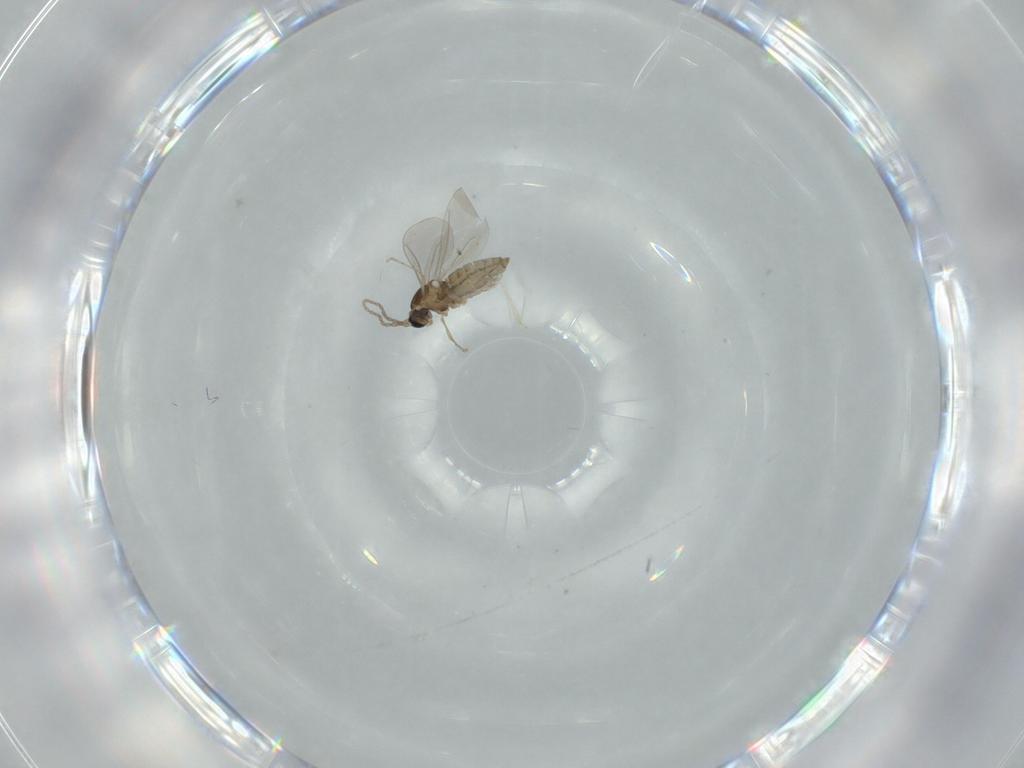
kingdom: Animalia
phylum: Arthropoda
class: Insecta
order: Diptera
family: Cecidomyiidae
